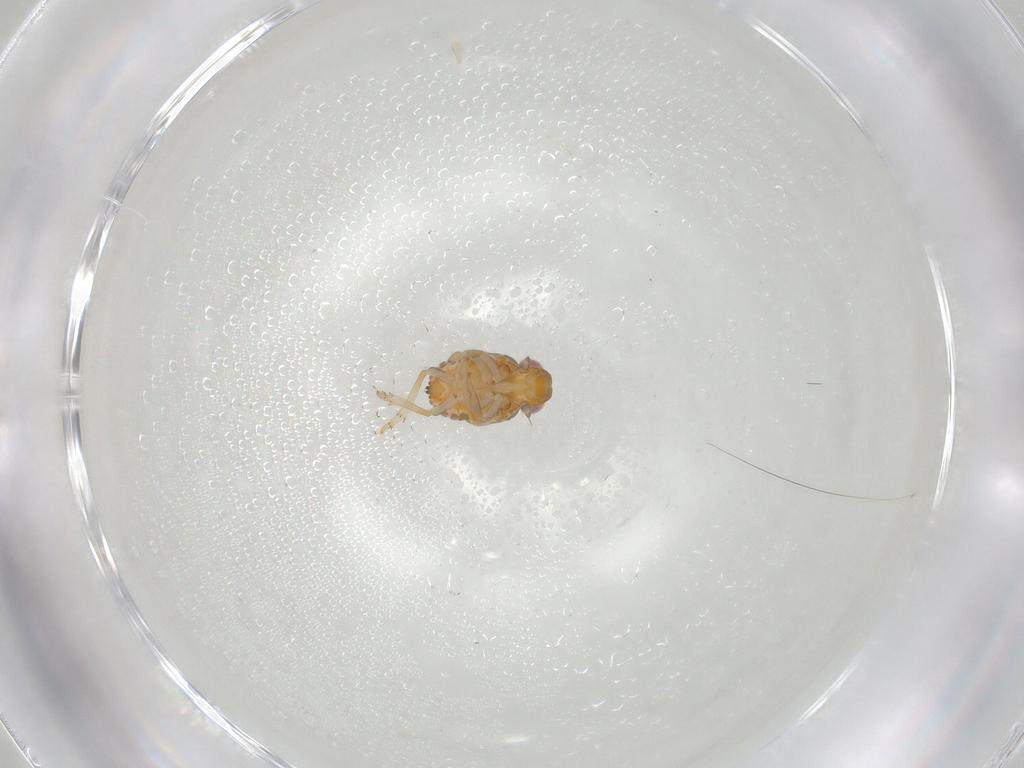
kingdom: Animalia
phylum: Arthropoda
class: Insecta
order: Hemiptera
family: Issidae
